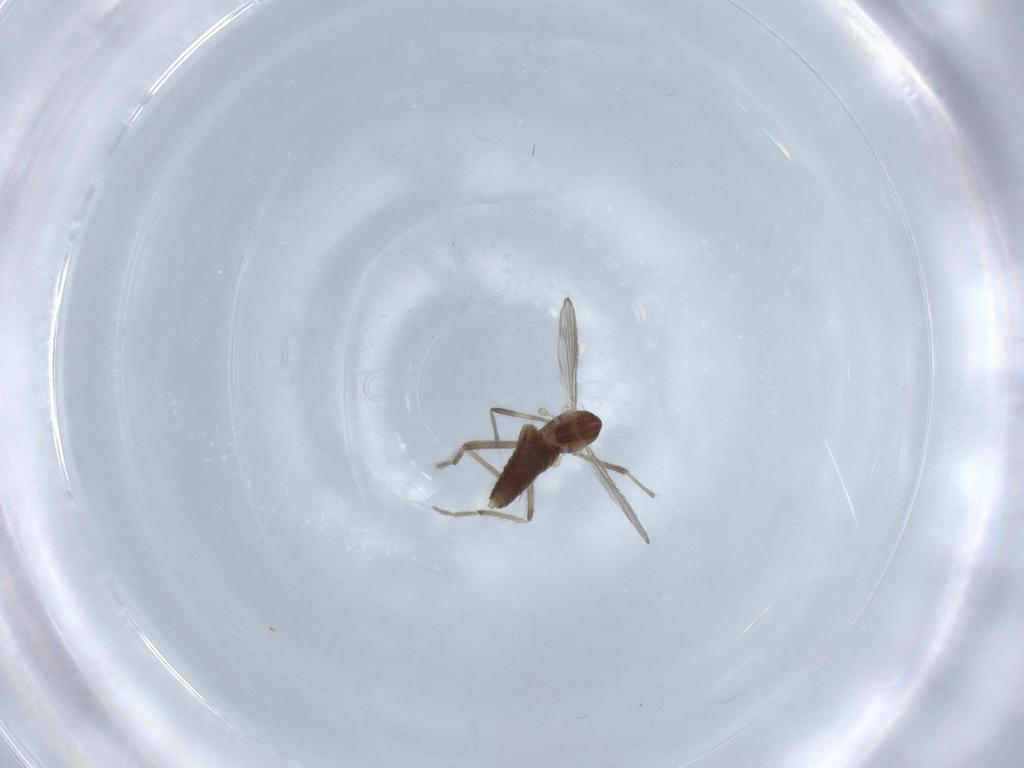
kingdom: Animalia
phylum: Arthropoda
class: Insecta
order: Diptera
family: Chironomidae
